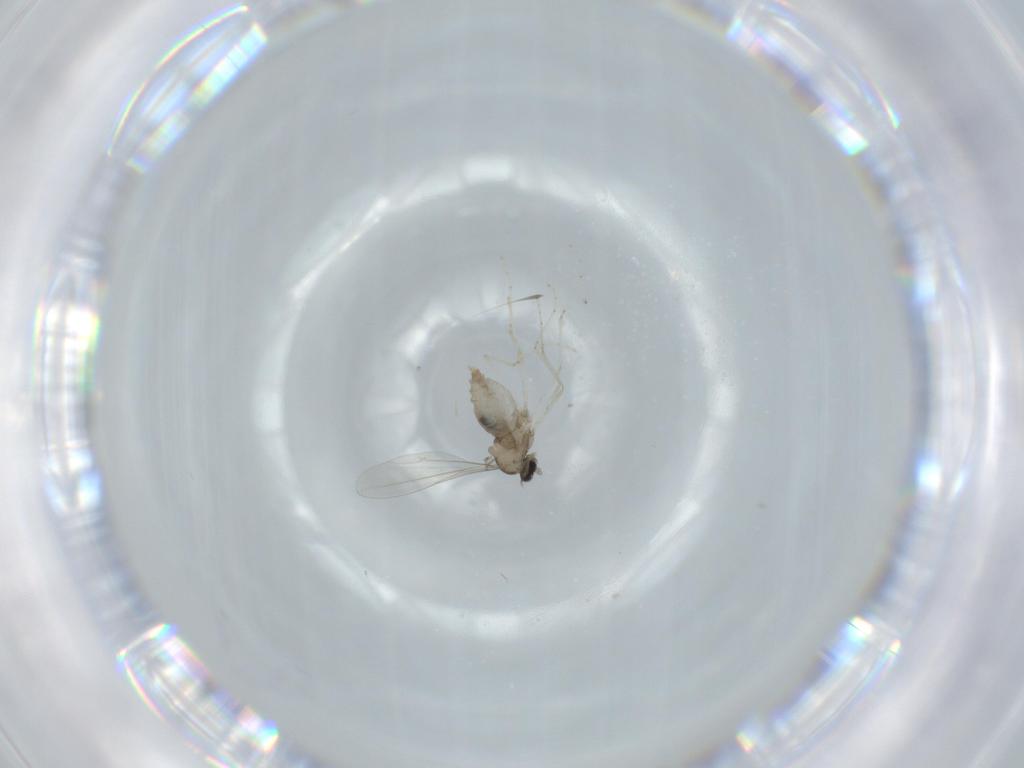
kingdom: Animalia
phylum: Arthropoda
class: Insecta
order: Diptera
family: Cecidomyiidae
